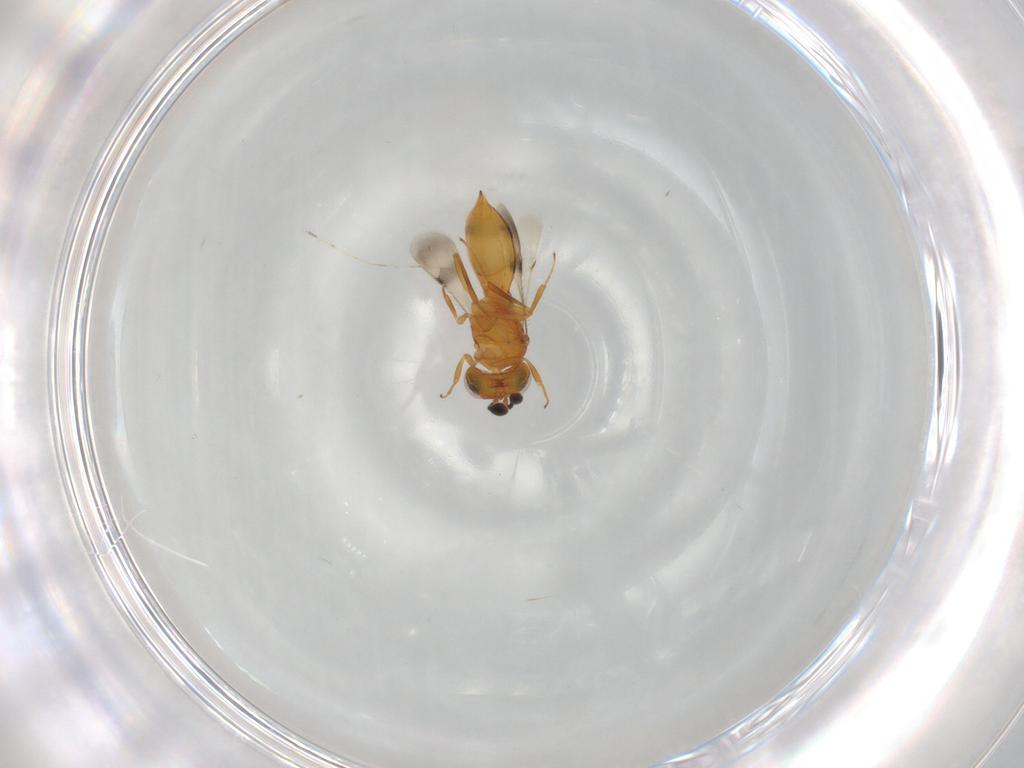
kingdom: Animalia
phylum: Arthropoda
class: Insecta
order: Hymenoptera
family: Scelionidae
